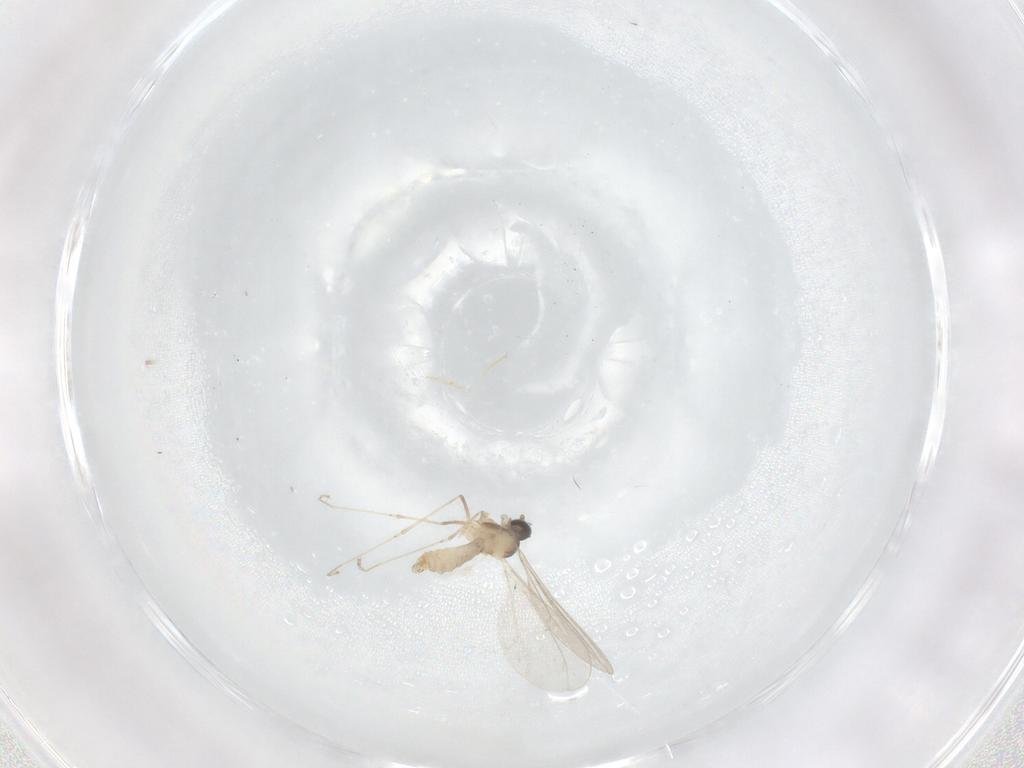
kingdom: Animalia
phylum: Arthropoda
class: Insecta
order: Diptera
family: Cecidomyiidae
